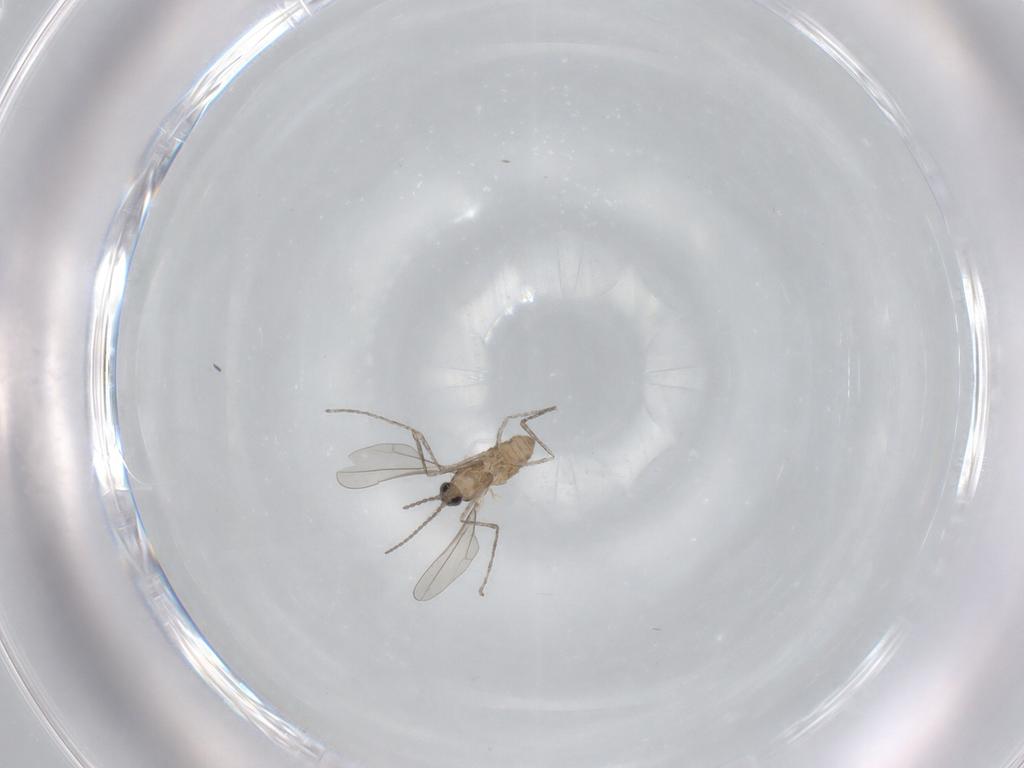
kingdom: Animalia
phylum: Arthropoda
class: Insecta
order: Diptera
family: Cecidomyiidae
